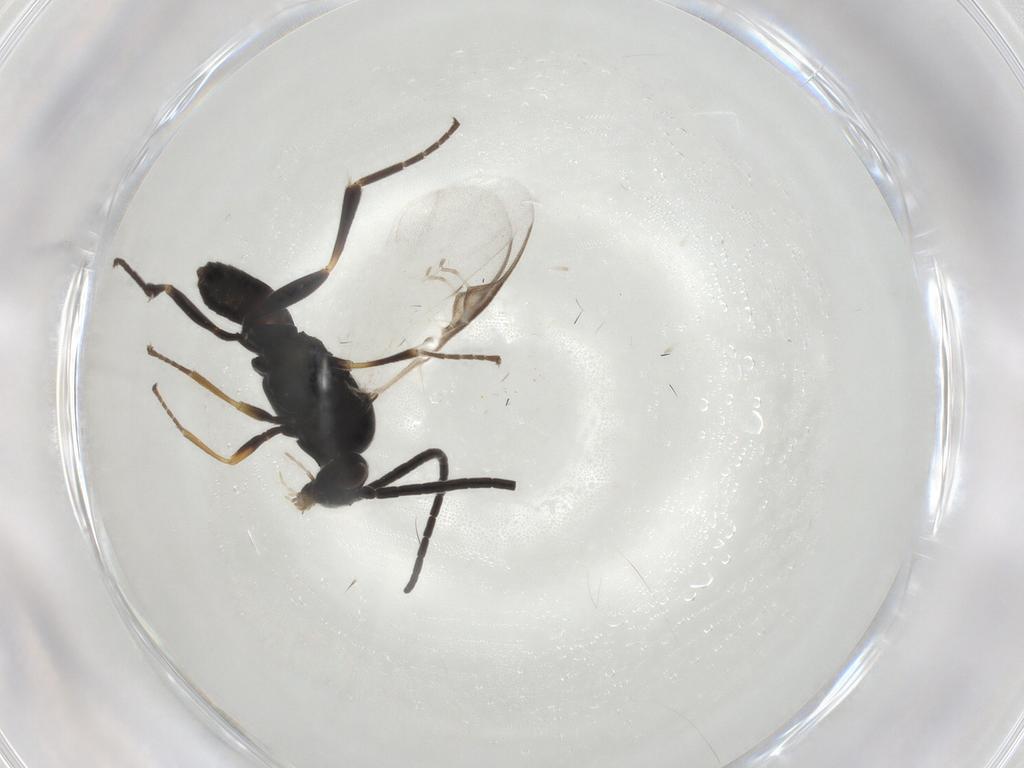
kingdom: Animalia
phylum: Arthropoda
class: Insecta
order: Hymenoptera
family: Braconidae
